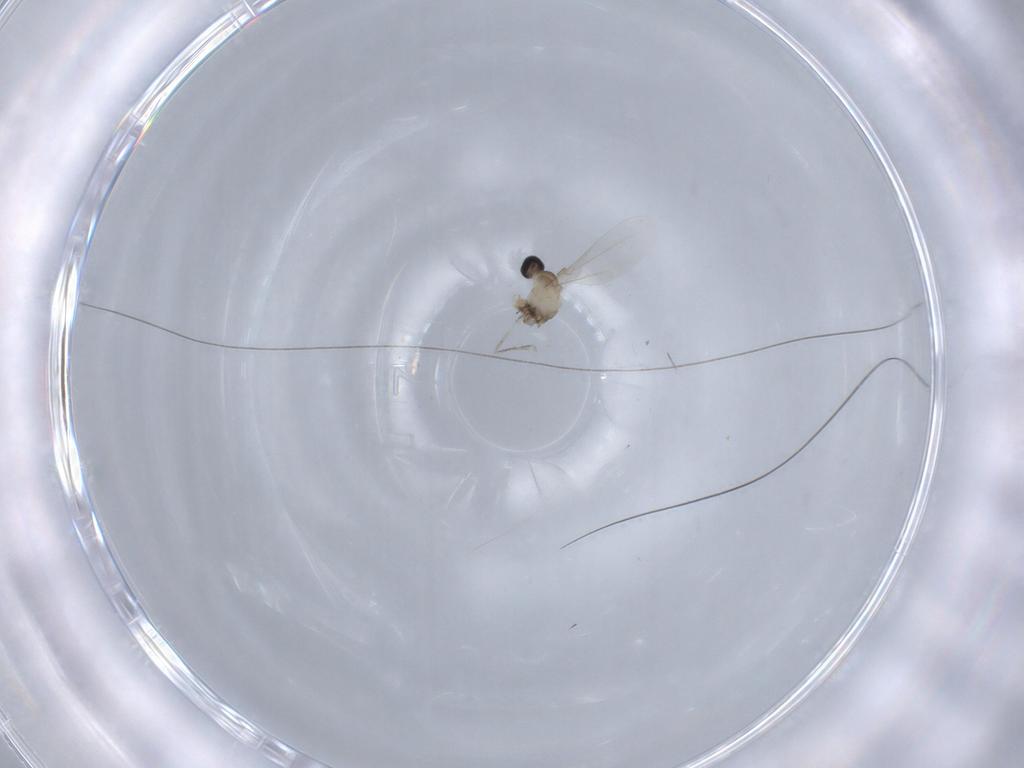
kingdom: Animalia
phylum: Arthropoda
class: Insecta
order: Diptera
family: Cecidomyiidae
